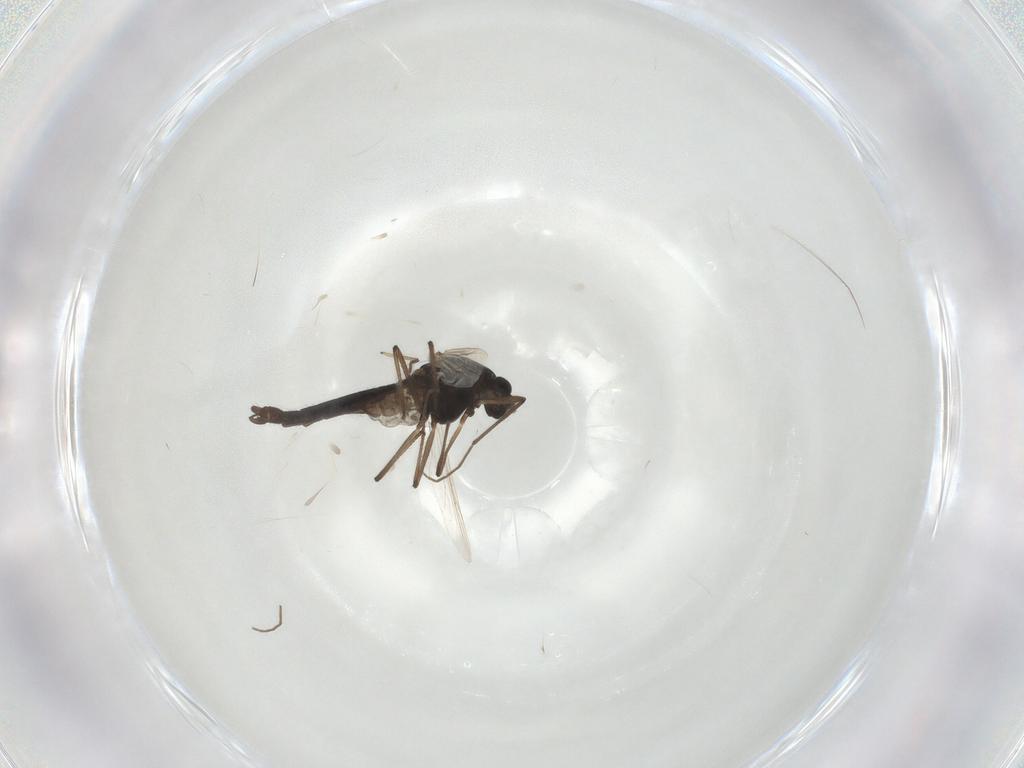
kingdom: Animalia
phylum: Arthropoda
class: Insecta
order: Diptera
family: Chironomidae
